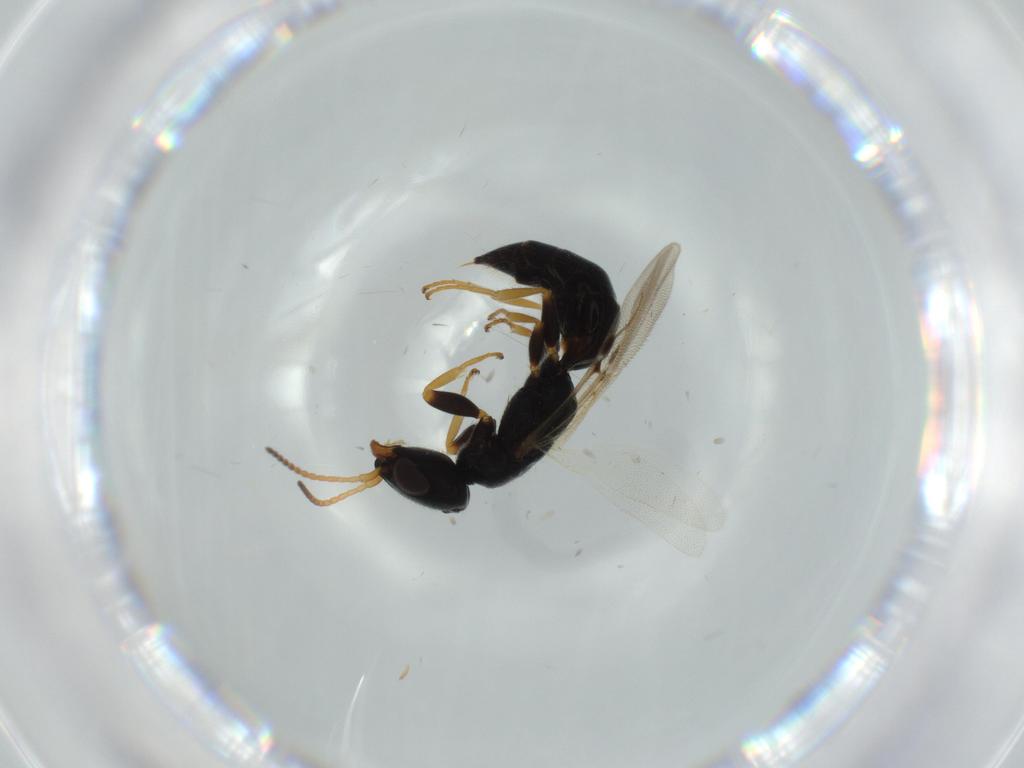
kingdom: Animalia
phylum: Arthropoda
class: Insecta
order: Hymenoptera
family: Bethylidae
